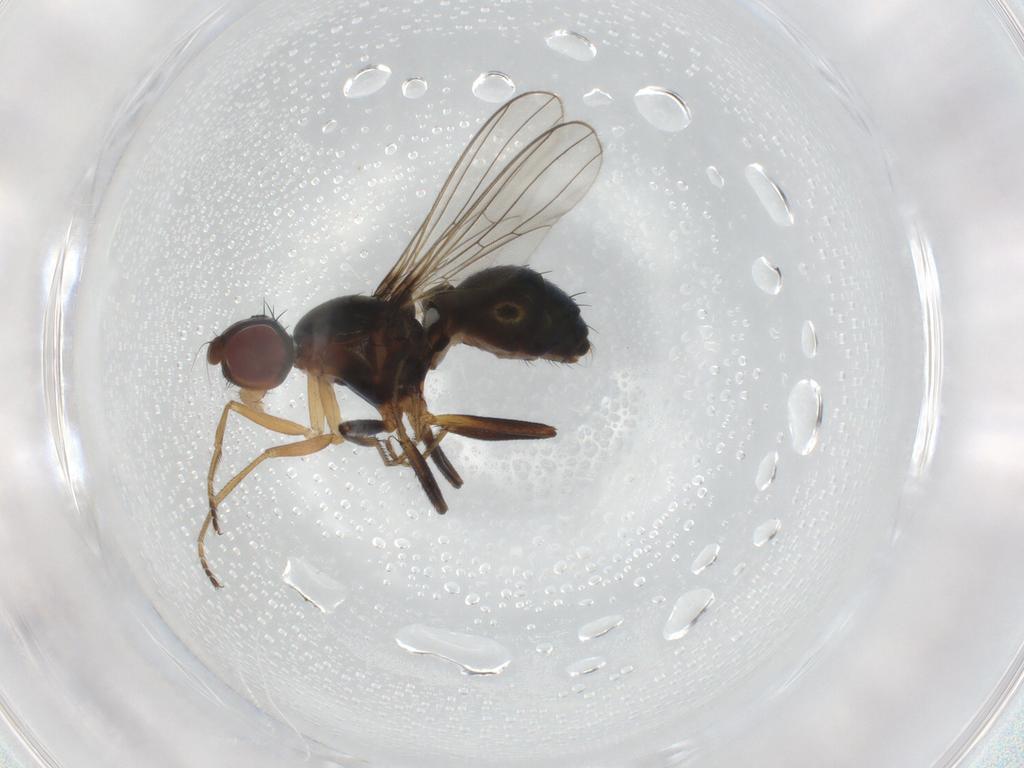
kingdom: Animalia
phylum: Arthropoda
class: Insecta
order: Diptera
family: Sepsidae
